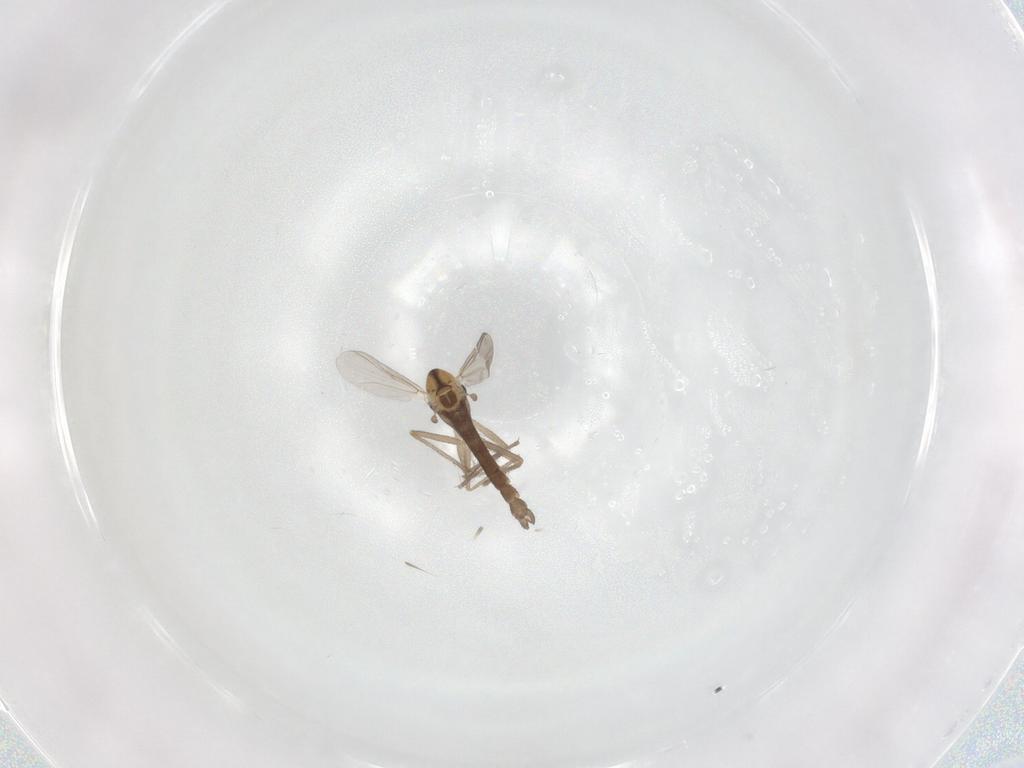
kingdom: Animalia
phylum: Arthropoda
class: Insecta
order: Diptera
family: Chironomidae
